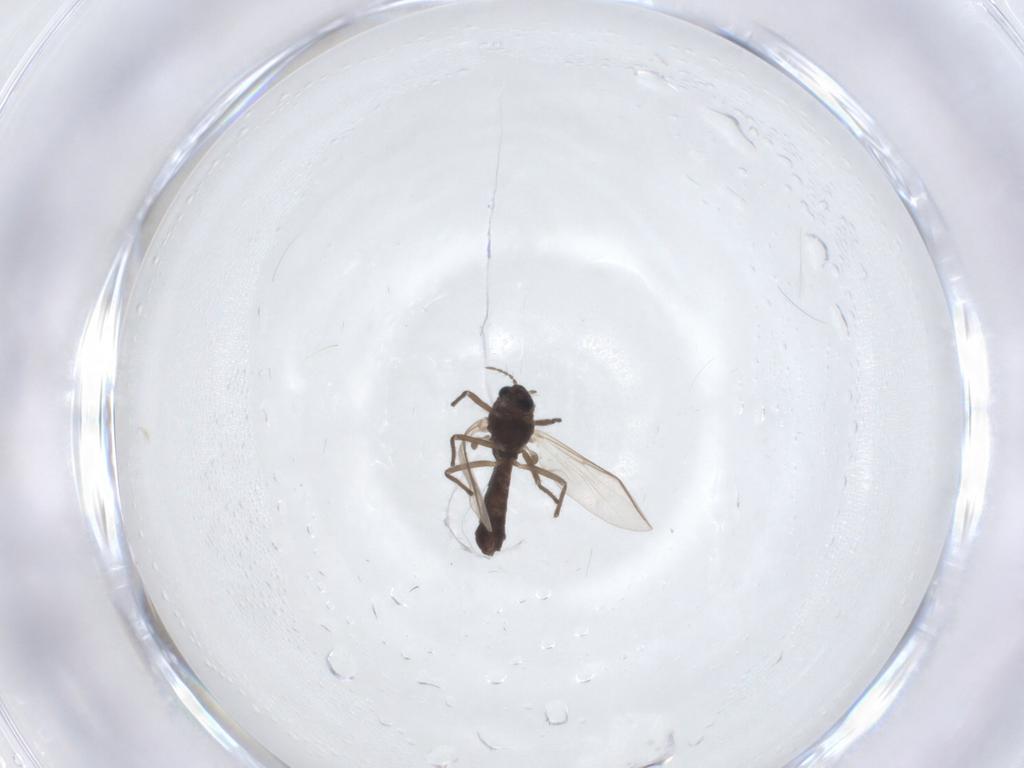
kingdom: Animalia
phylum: Arthropoda
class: Insecta
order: Diptera
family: Chironomidae
